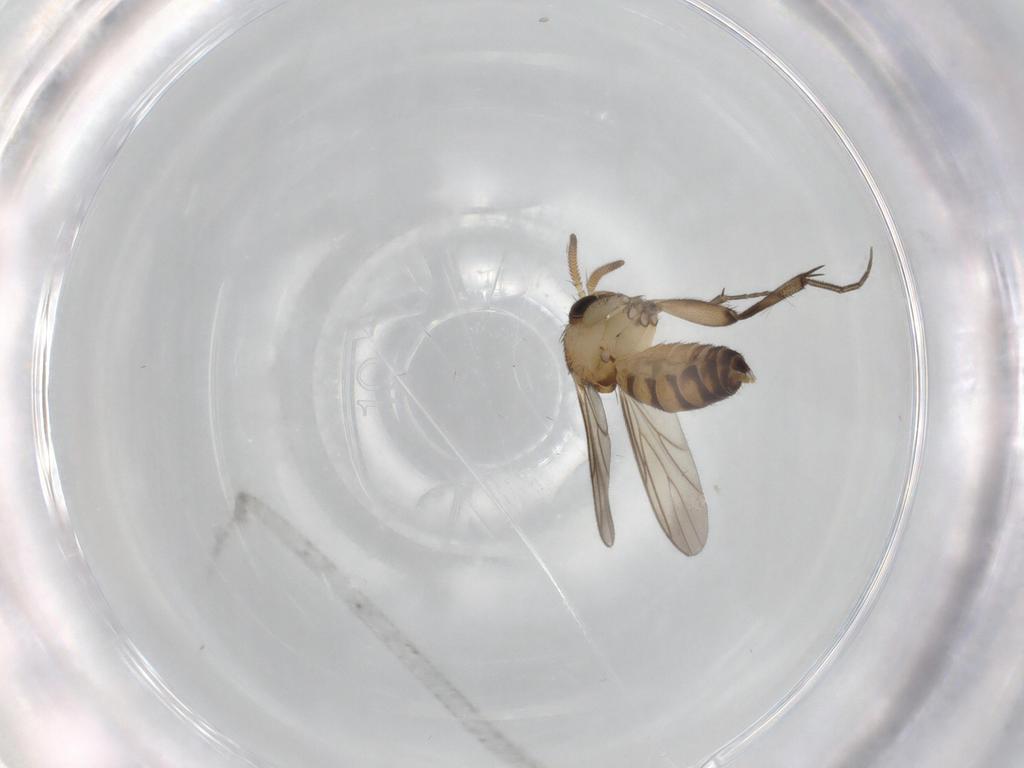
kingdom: Animalia
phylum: Arthropoda
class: Insecta
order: Diptera
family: Mycetophilidae
